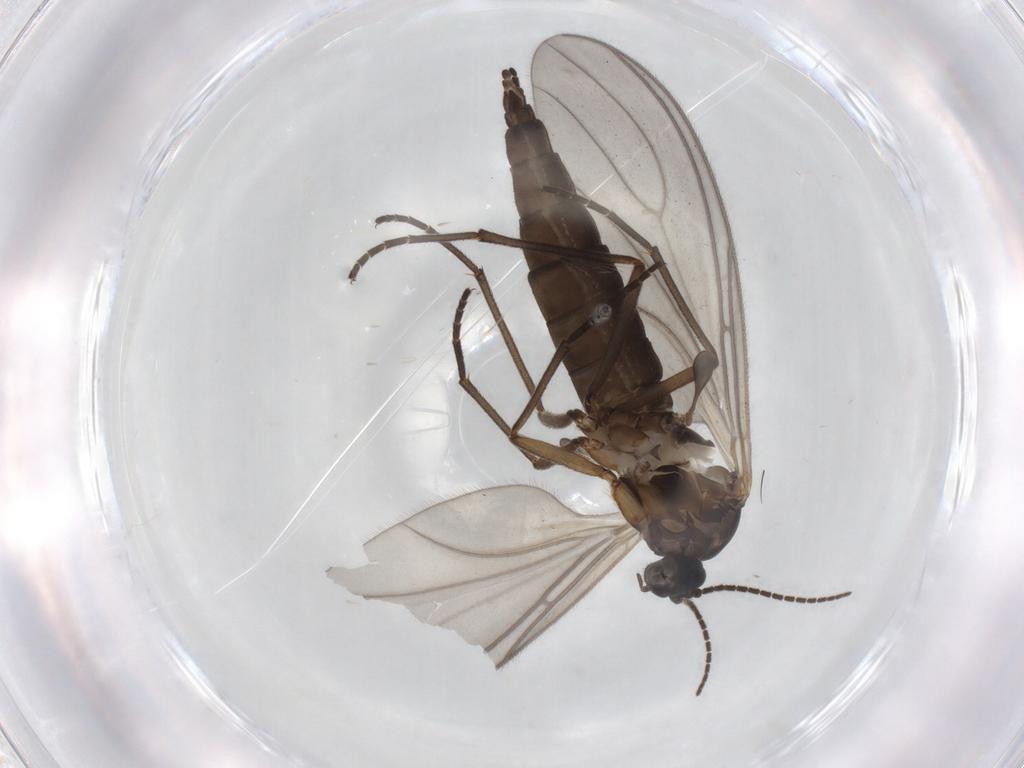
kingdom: Animalia
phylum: Arthropoda
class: Insecta
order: Diptera
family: Sciaridae
